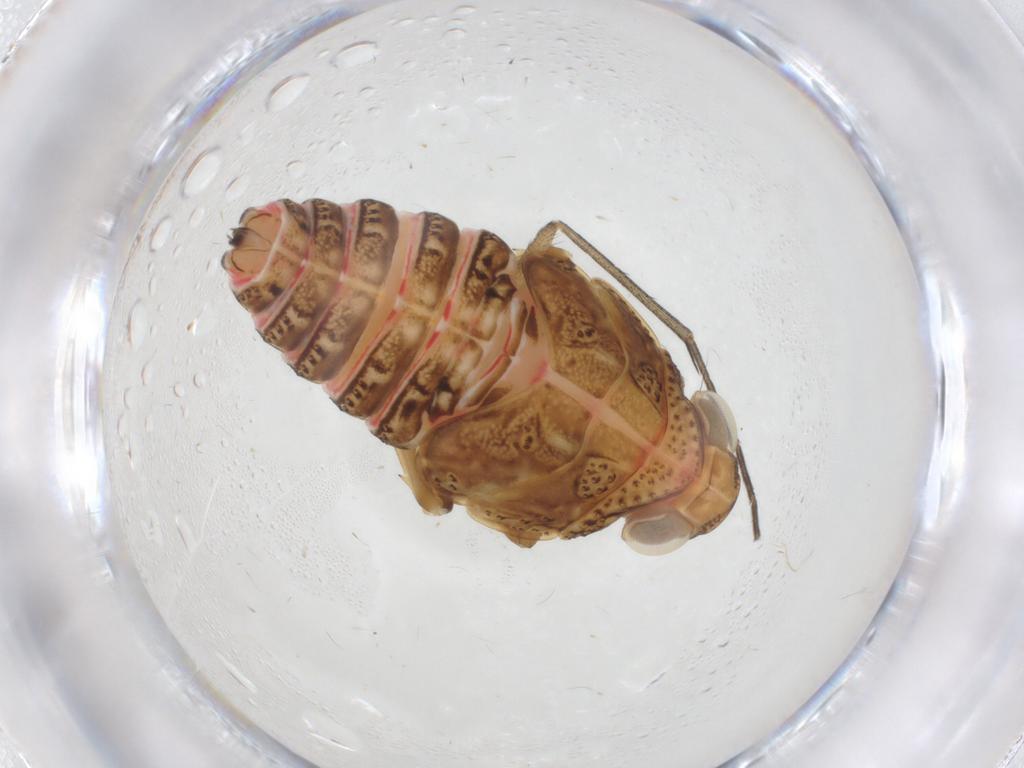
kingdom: Animalia
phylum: Arthropoda
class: Insecta
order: Hemiptera
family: Issidae
